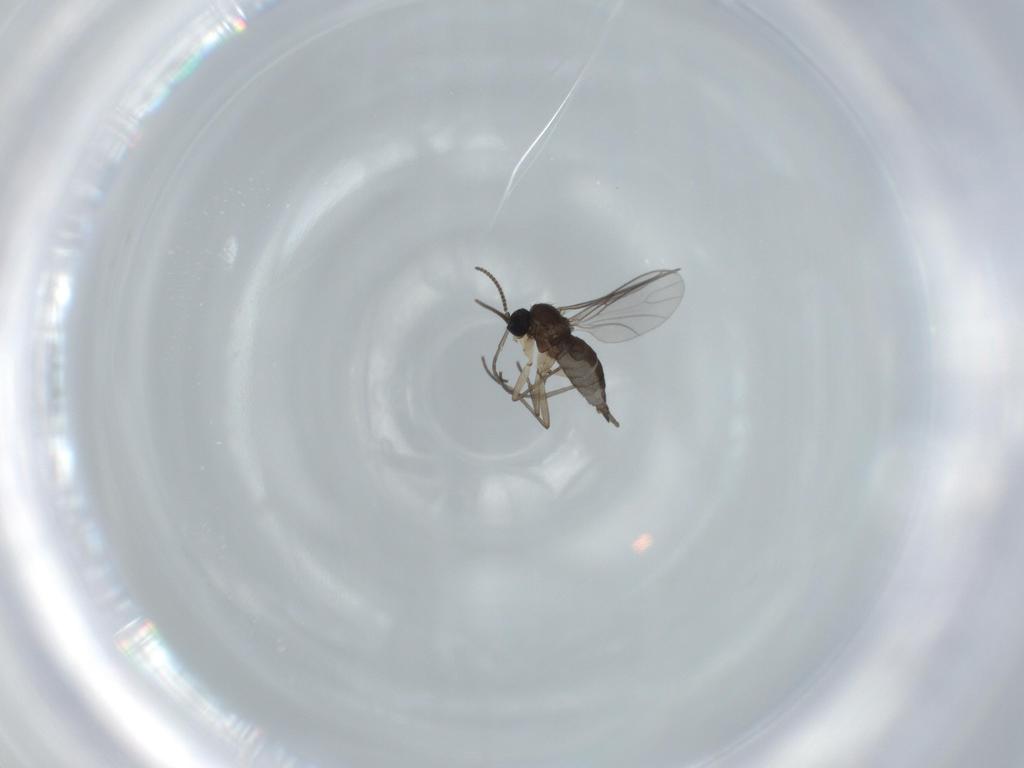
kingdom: Animalia
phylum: Arthropoda
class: Insecta
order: Diptera
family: Sciaridae
